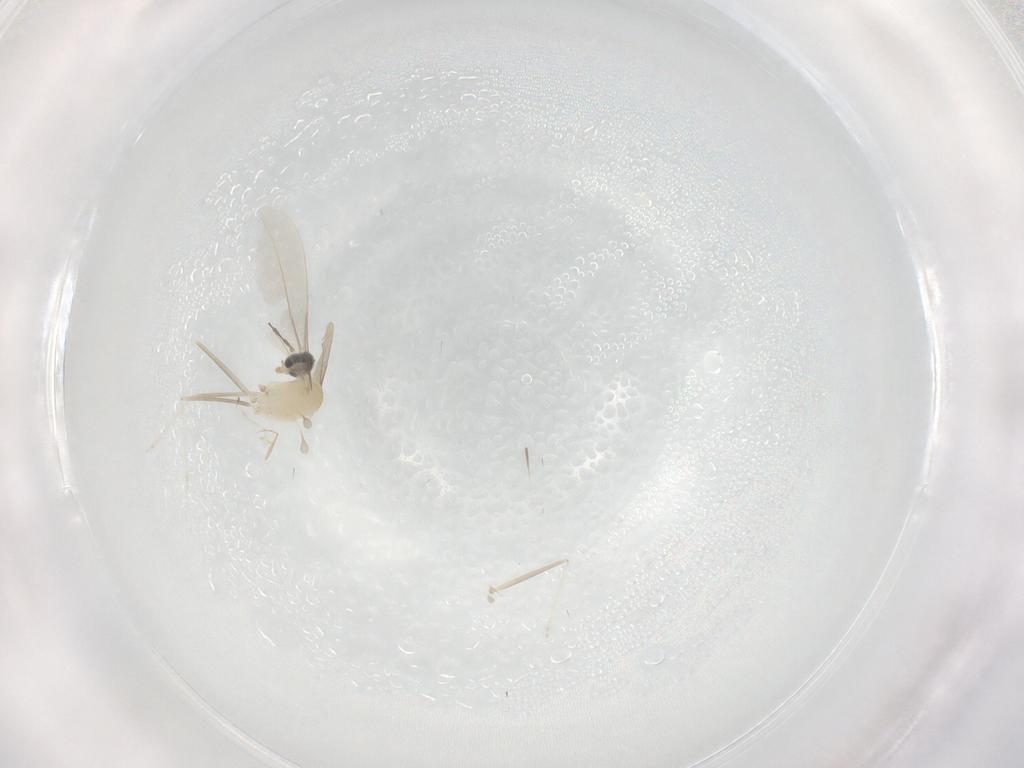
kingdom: Animalia
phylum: Arthropoda
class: Insecta
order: Diptera
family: Cecidomyiidae
